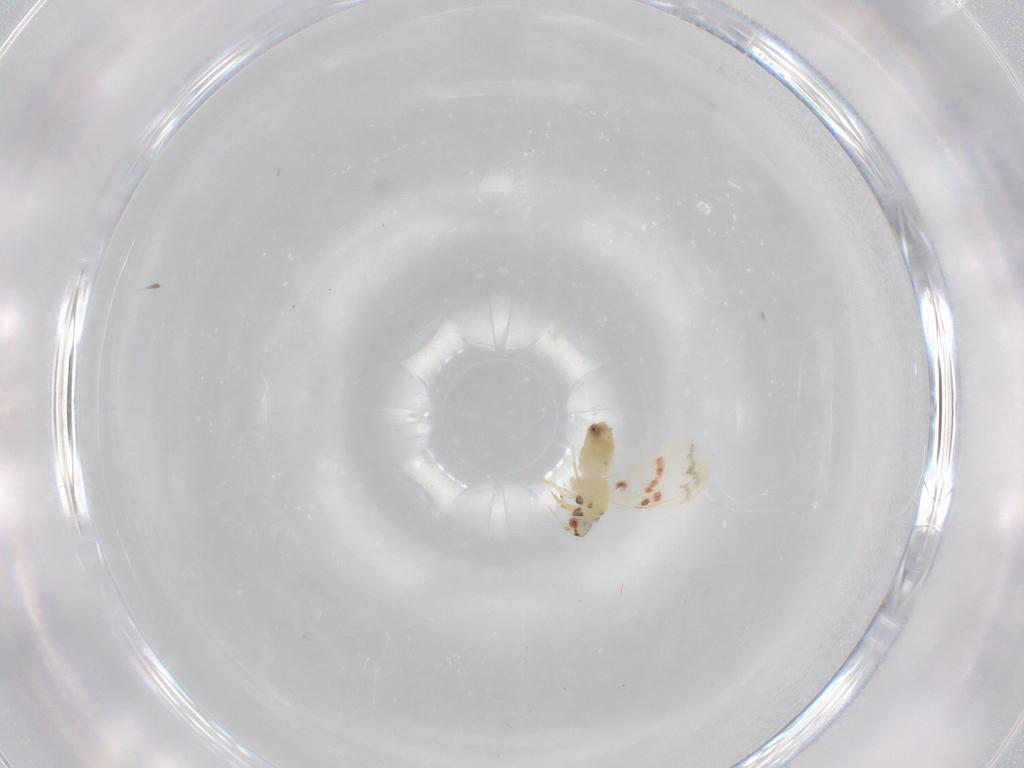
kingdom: Animalia
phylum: Arthropoda
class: Insecta
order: Hemiptera
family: Aleyrodidae
